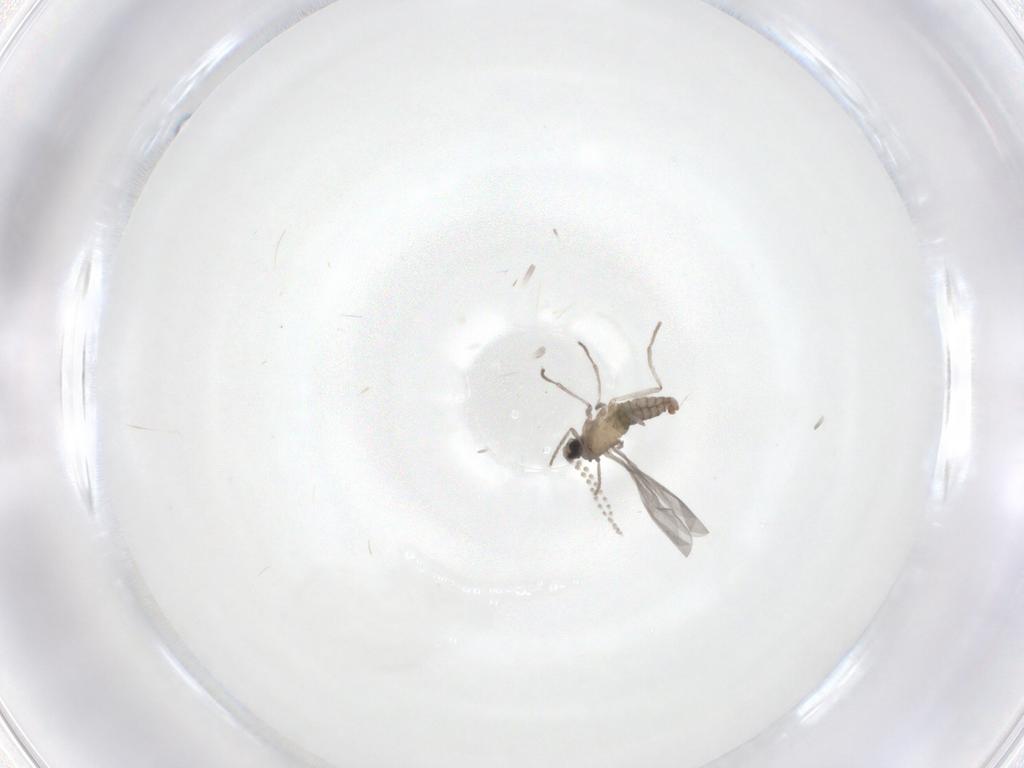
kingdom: Animalia
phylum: Arthropoda
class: Insecta
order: Diptera
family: Cecidomyiidae
